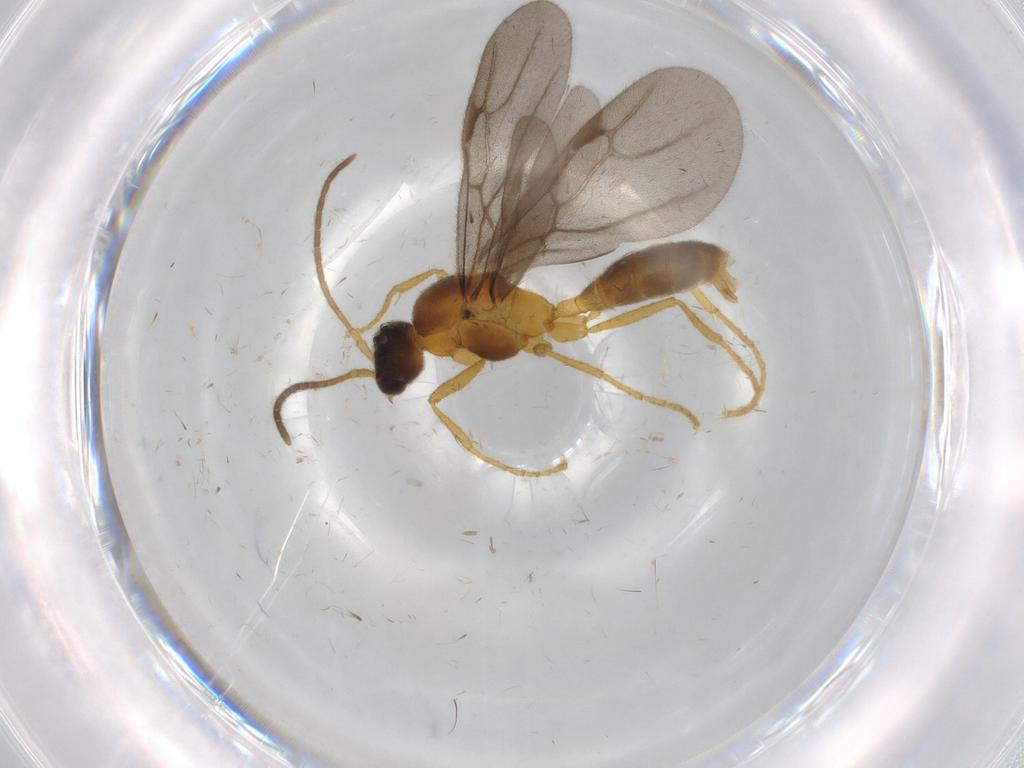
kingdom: Animalia
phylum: Arthropoda
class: Insecta
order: Hymenoptera
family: Formicidae
